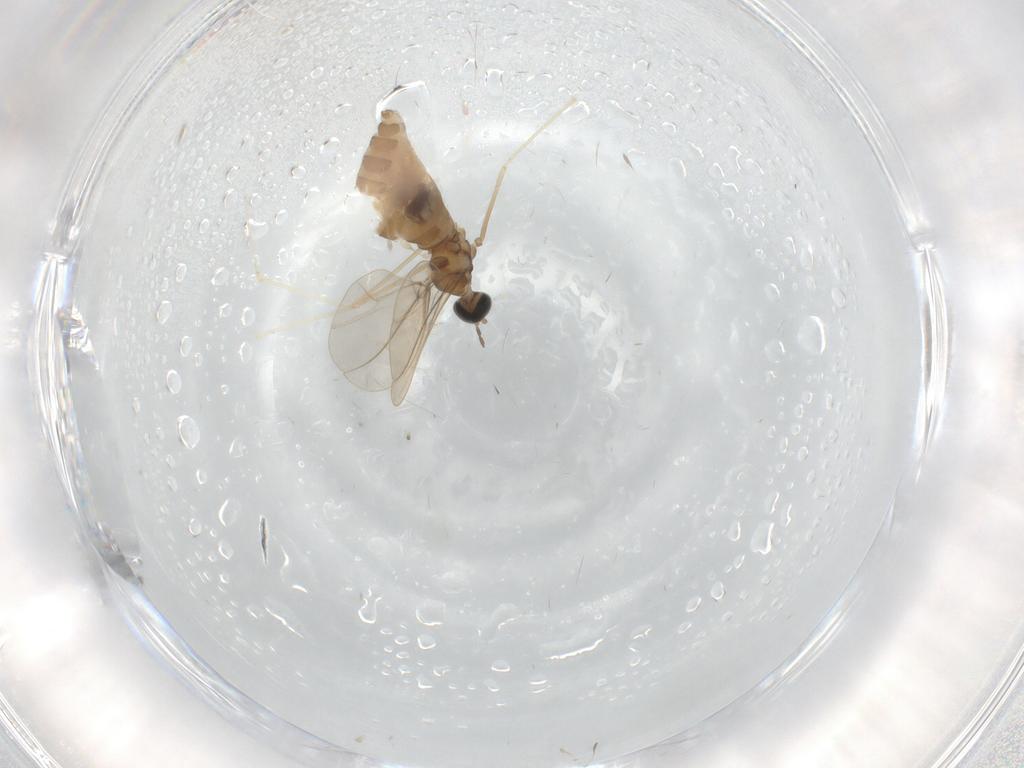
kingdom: Animalia
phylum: Arthropoda
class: Insecta
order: Diptera
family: Cecidomyiidae
